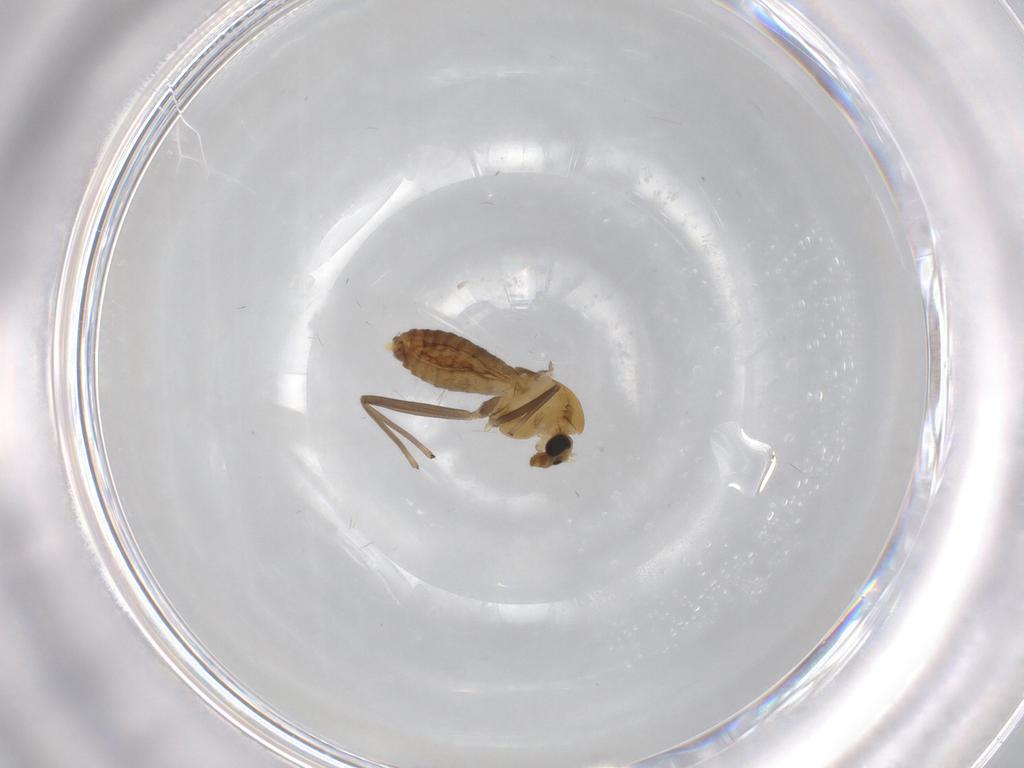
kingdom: Animalia
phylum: Arthropoda
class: Insecta
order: Diptera
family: Chironomidae
